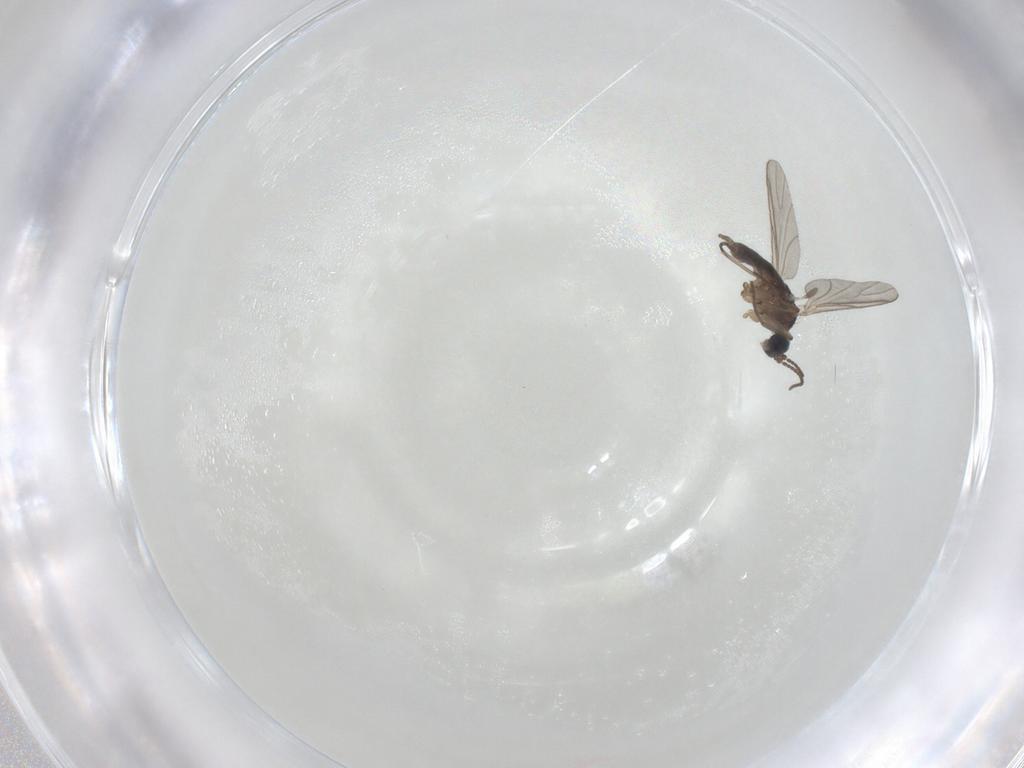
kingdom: Animalia
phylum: Arthropoda
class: Insecta
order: Diptera
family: Sciaridae
